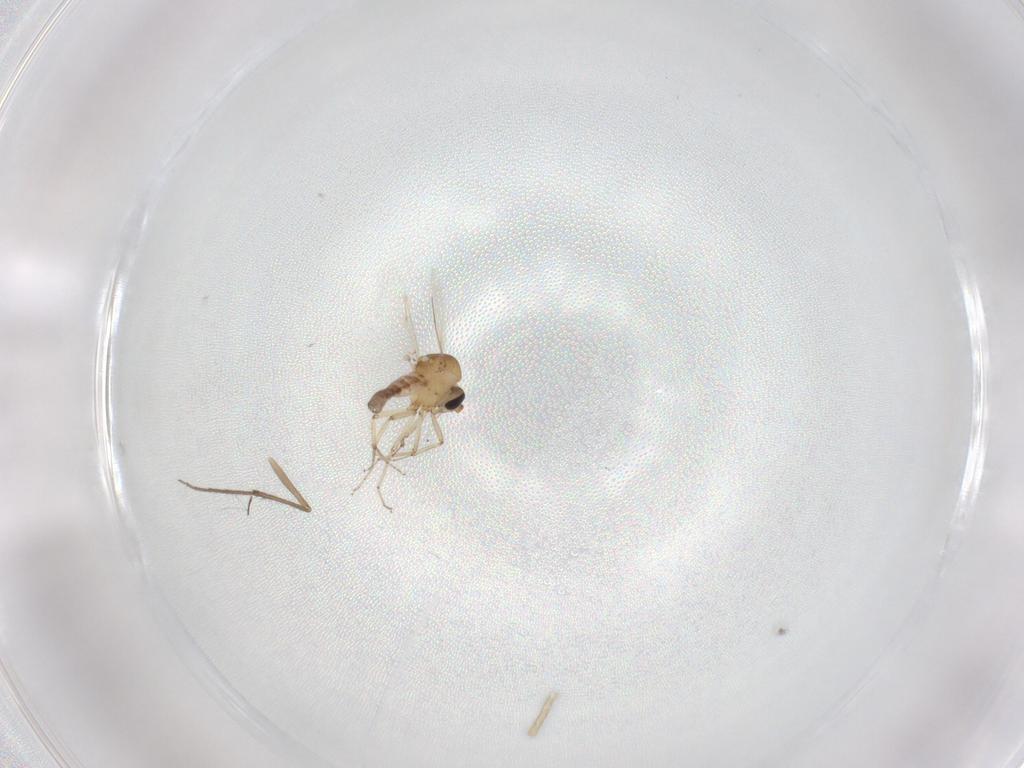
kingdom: Animalia
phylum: Arthropoda
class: Insecta
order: Diptera
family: Ceratopogonidae
